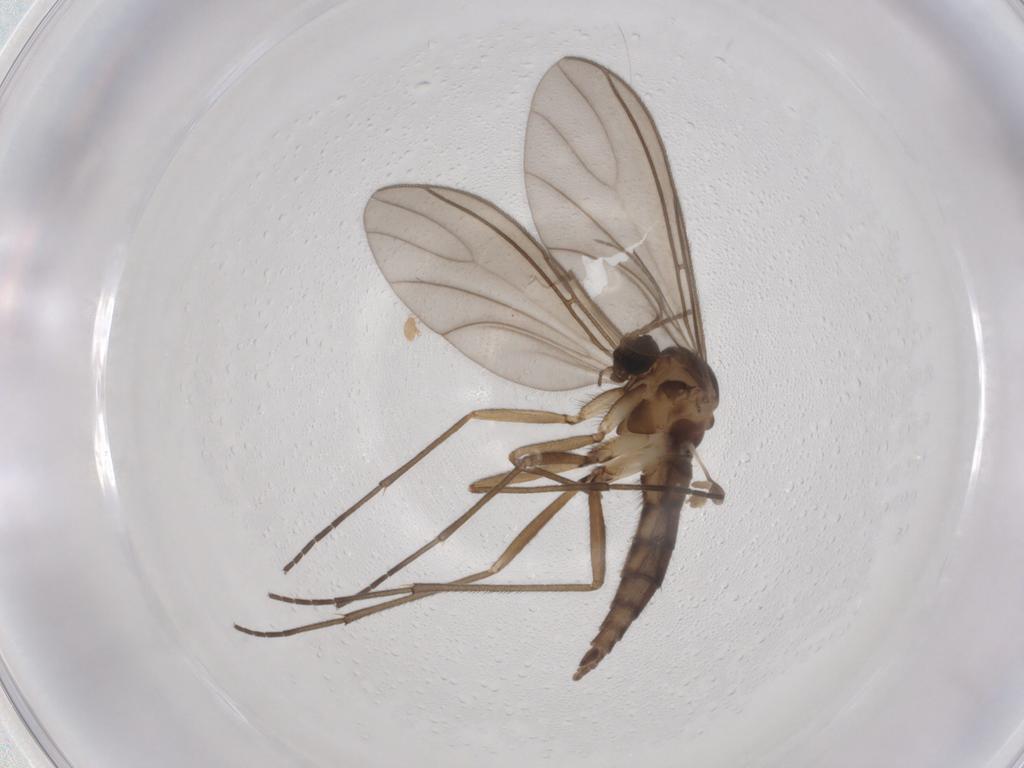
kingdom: Animalia
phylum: Arthropoda
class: Insecta
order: Diptera
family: Sciaridae
